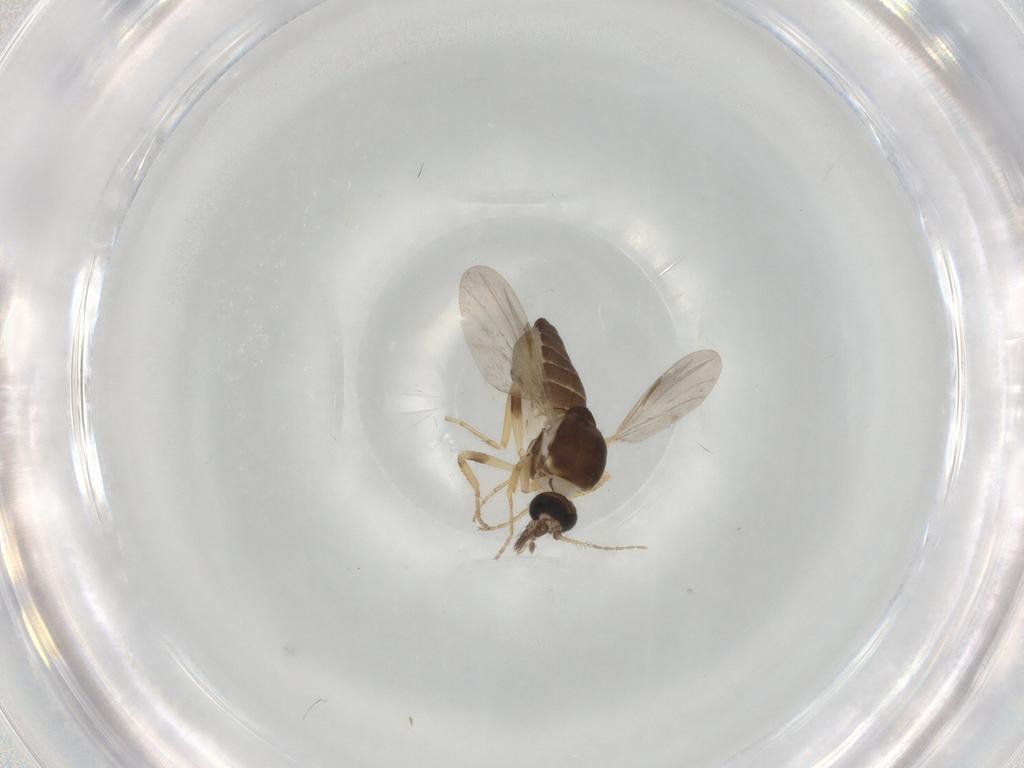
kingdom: Animalia
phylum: Arthropoda
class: Insecta
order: Diptera
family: Ceratopogonidae
